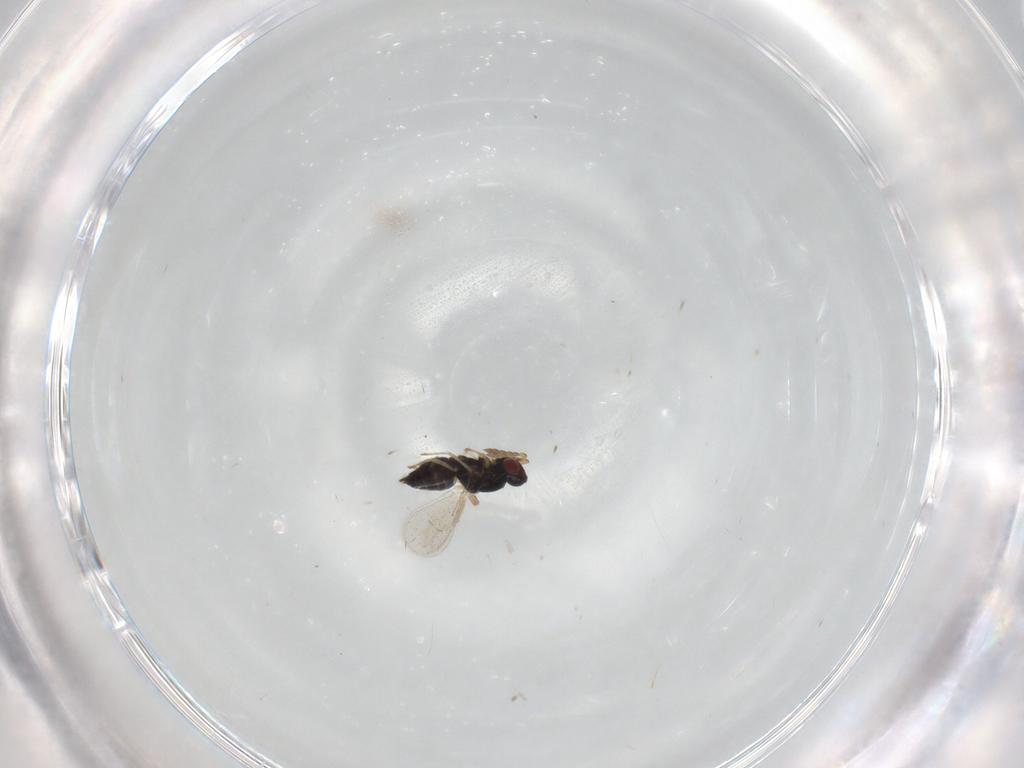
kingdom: Animalia
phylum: Arthropoda
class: Insecta
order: Hymenoptera
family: Eulophidae
